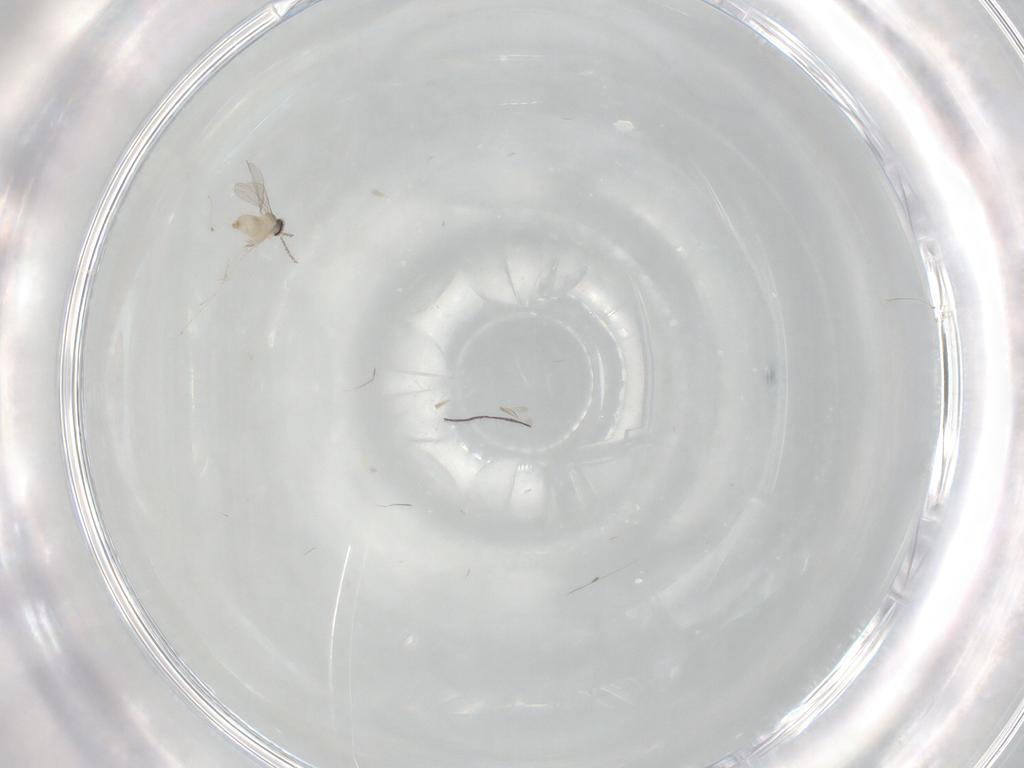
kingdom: Animalia
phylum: Arthropoda
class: Insecta
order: Diptera
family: Cecidomyiidae
